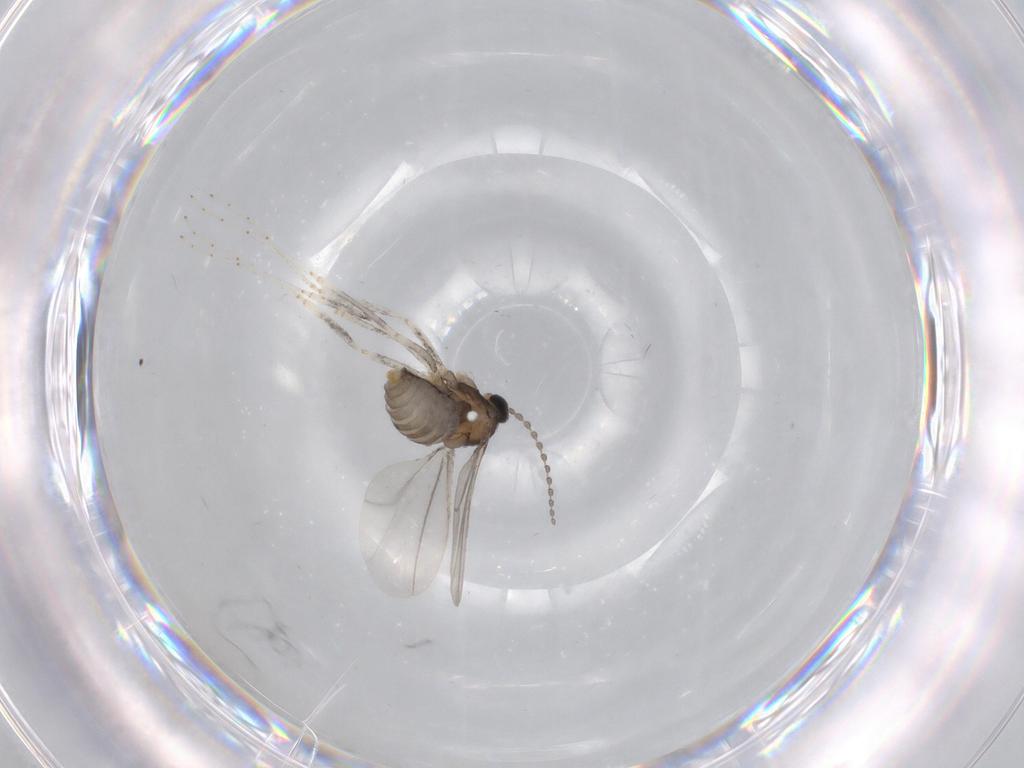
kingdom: Animalia
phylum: Arthropoda
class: Insecta
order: Diptera
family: Cecidomyiidae
